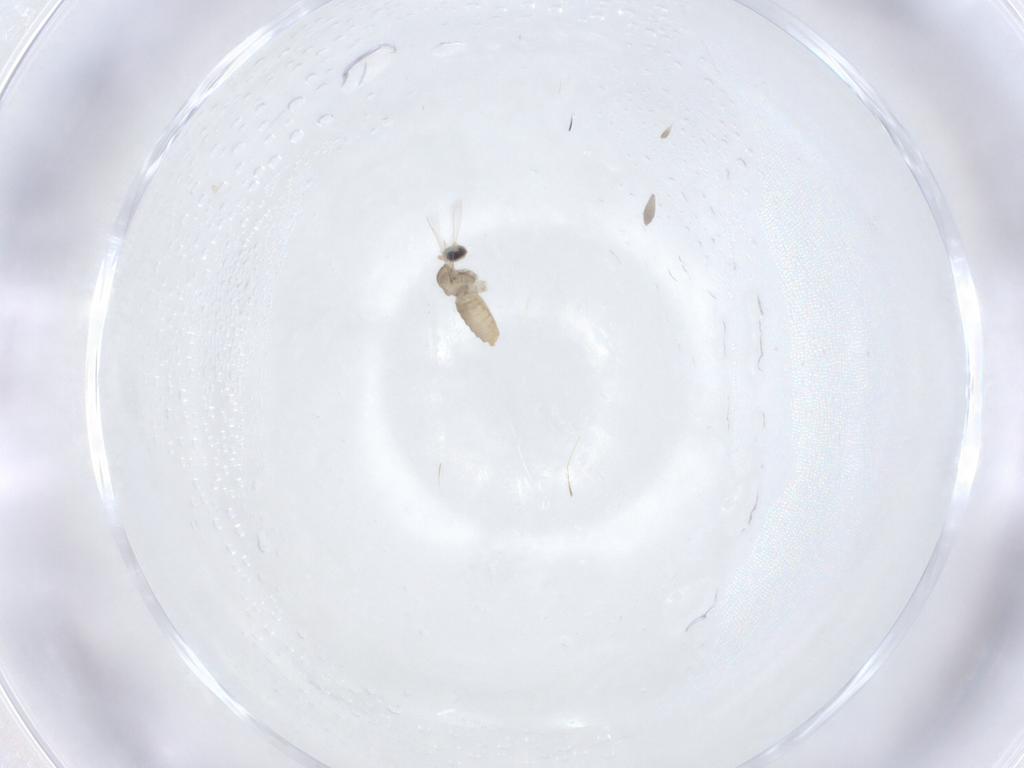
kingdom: Animalia
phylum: Arthropoda
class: Insecta
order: Diptera
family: Cecidomyiidae
